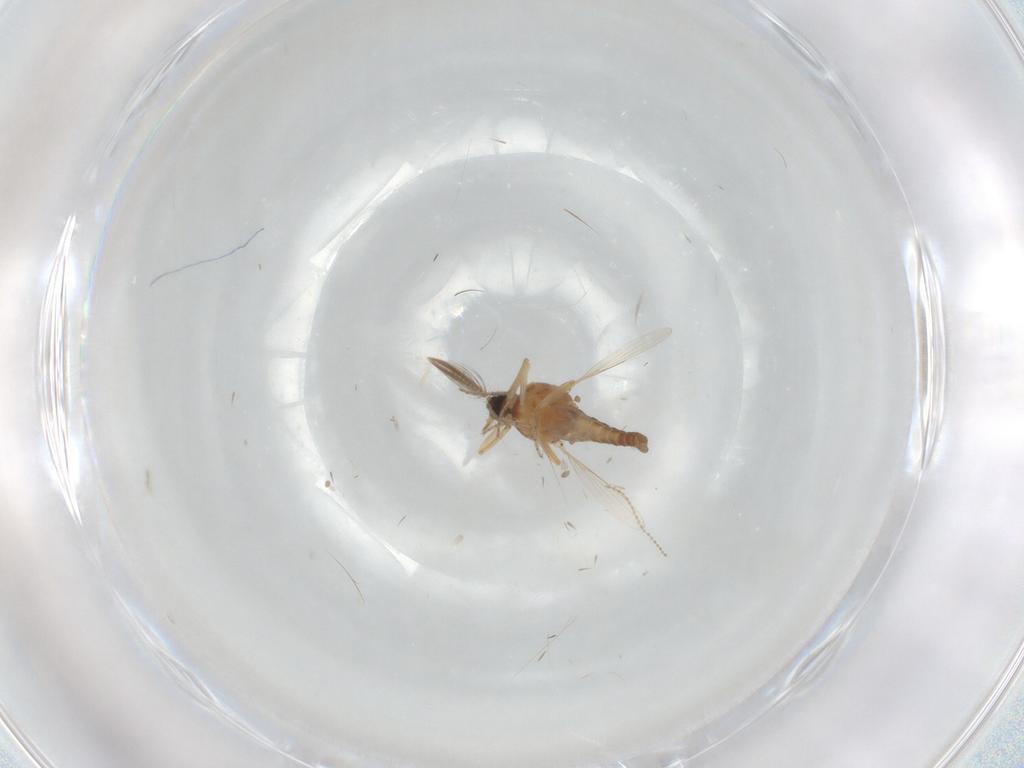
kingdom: Animalia
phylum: Arthropoda
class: Insecta
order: Diptera
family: Ceratopogonidae
